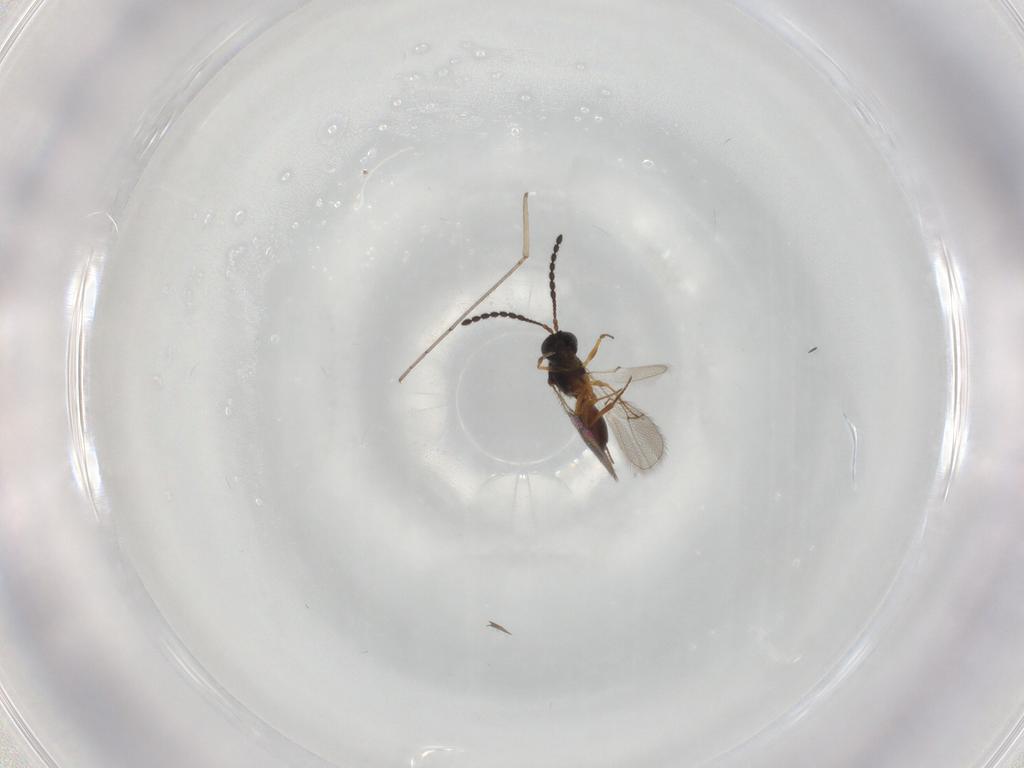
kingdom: Animalia
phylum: Arthropoda
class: Insecta
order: Hymenoptera
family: Figitidae
